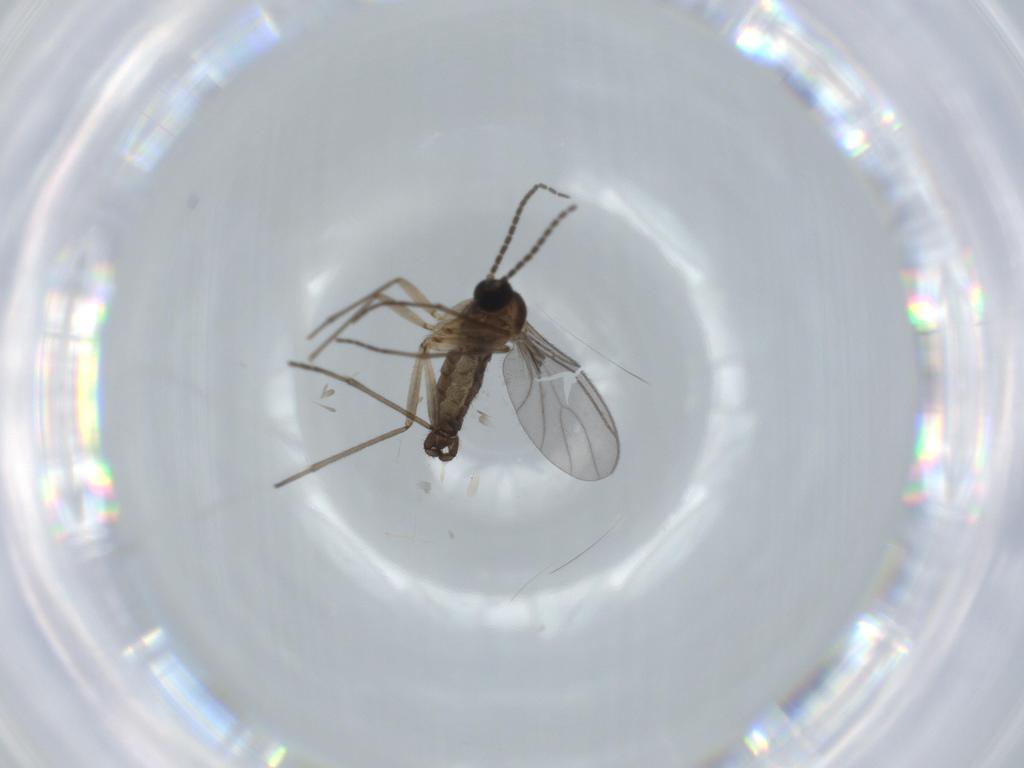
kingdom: Animalia
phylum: Arthropoda
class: Insecta
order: Diptera
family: Sciaridae
